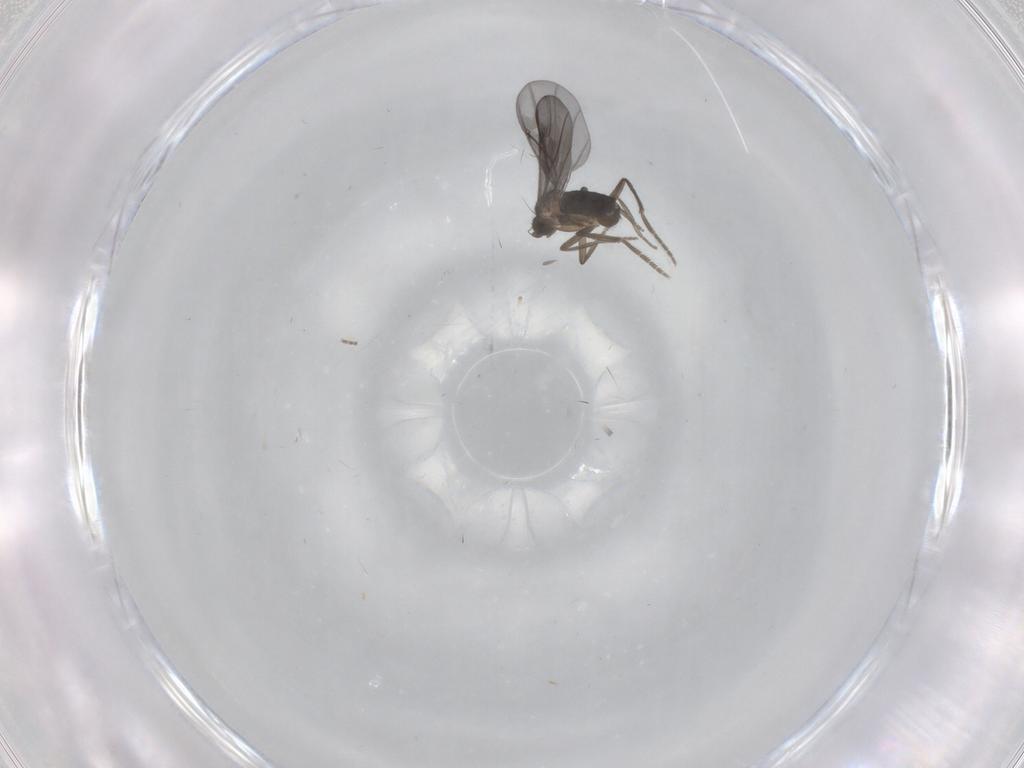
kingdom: Animalia
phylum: Arthropoda
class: Insecta
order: Diptera
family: Phoridae
